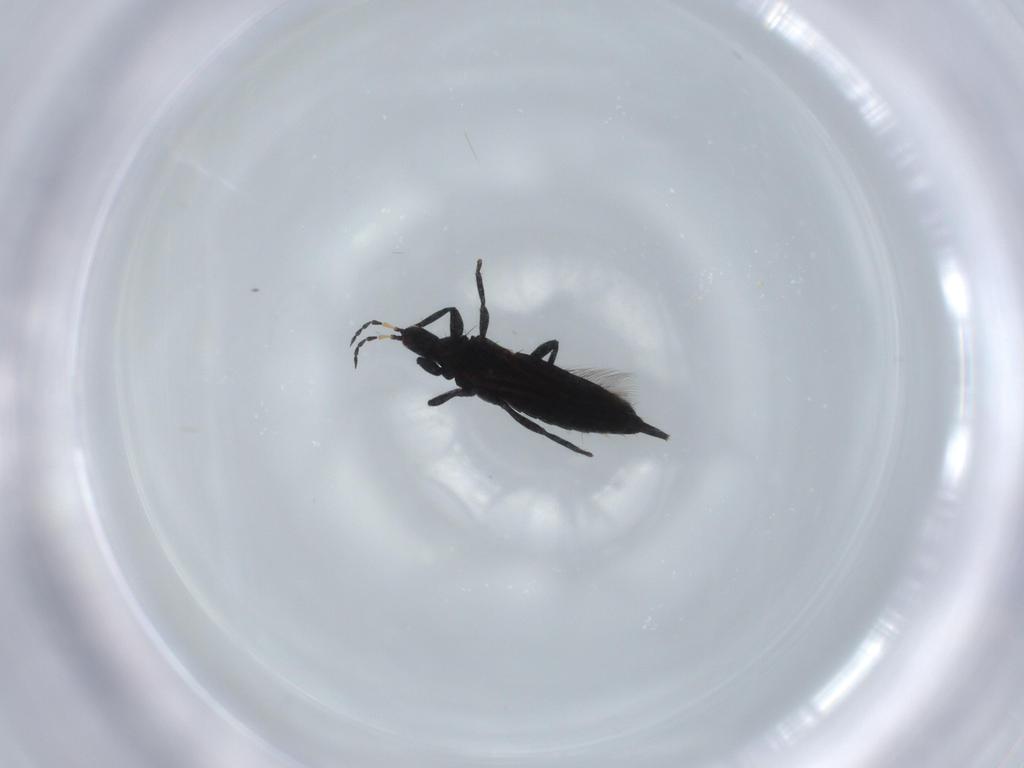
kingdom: Animalia
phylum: Arthropoda
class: Insecta
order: Thysanoptera
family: Phlaeothripidae
